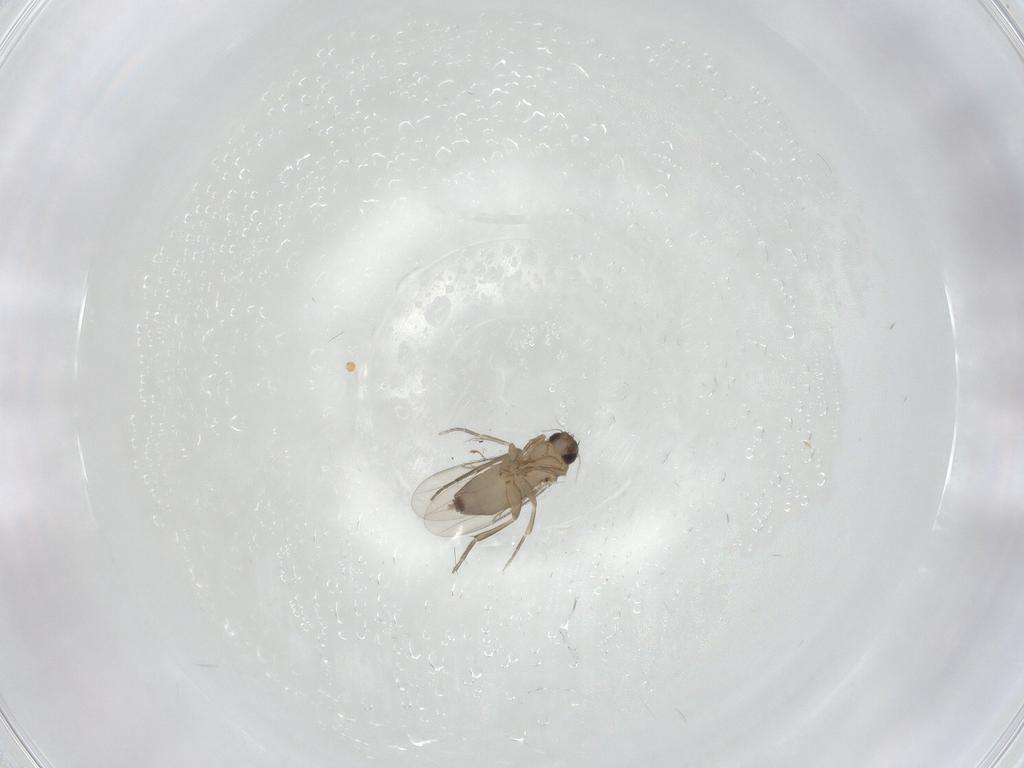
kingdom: Animalia
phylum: Arthropoda
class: Insecta
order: Diptera
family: Phoridae
